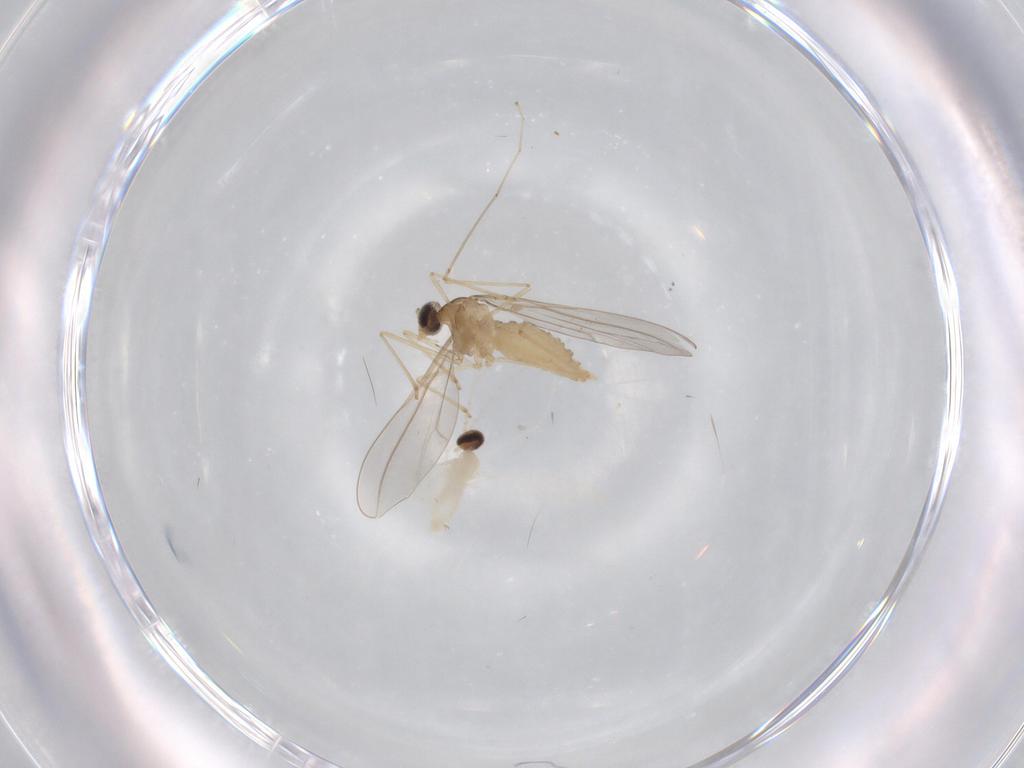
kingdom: Animalia
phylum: Arthropoda
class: Insecta
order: Diptera
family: Cecidomyiidae
